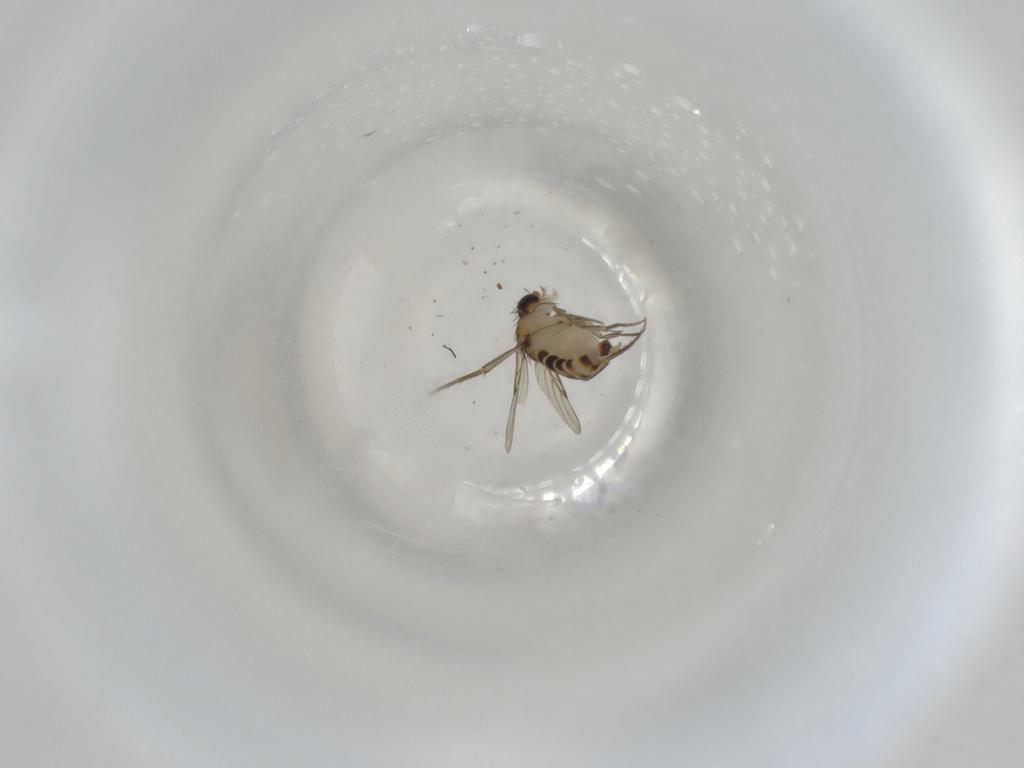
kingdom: Animalia
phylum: Arthropoda
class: Insecta
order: Diptera
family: Phoridae
